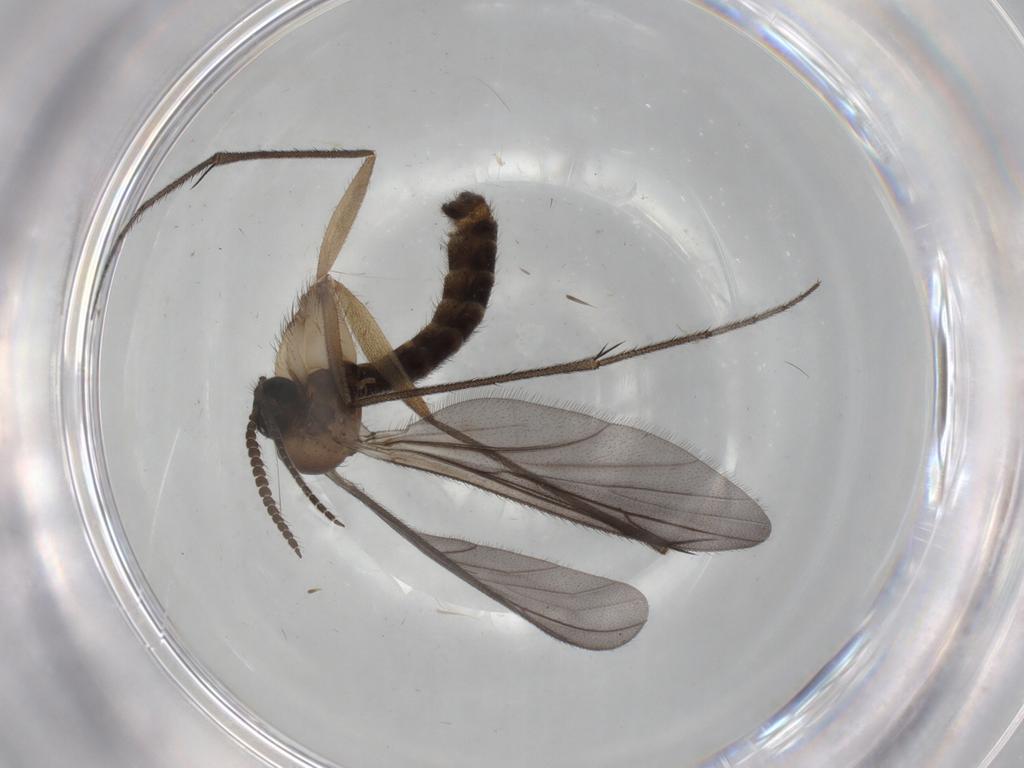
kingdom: Animalia
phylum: Arthropoda
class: Insecta
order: Diptera
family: Ditomyiidae
